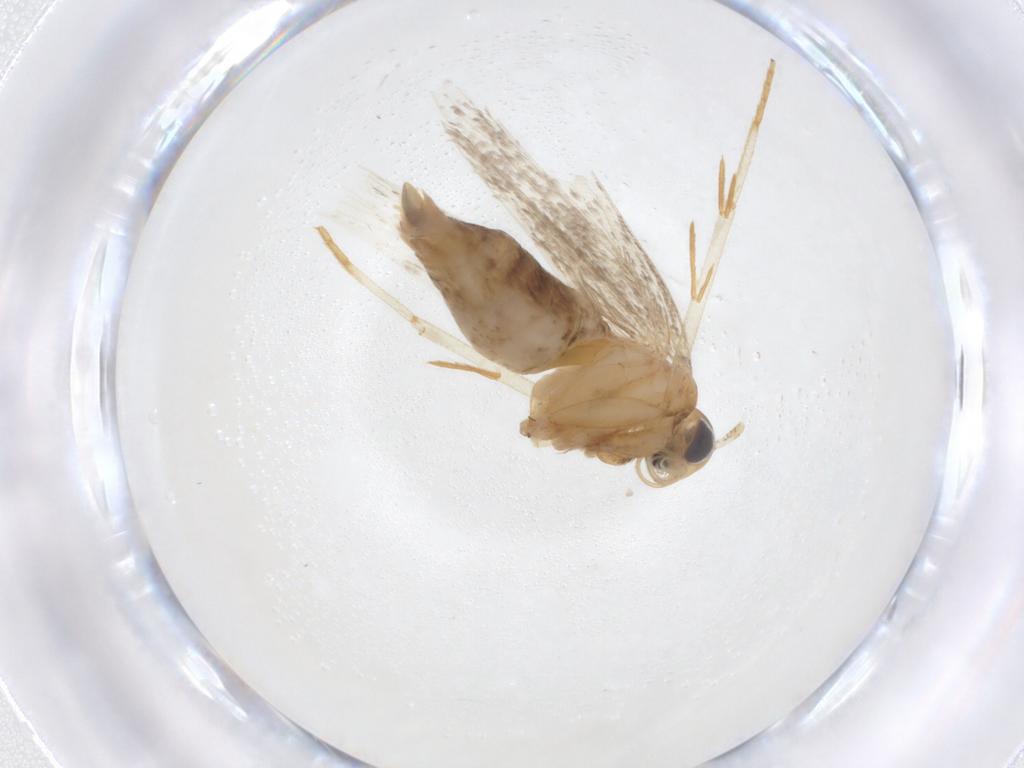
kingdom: Animalia
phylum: Arthropoda
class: Insecta
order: Lepidoptera
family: Oecophoridae
